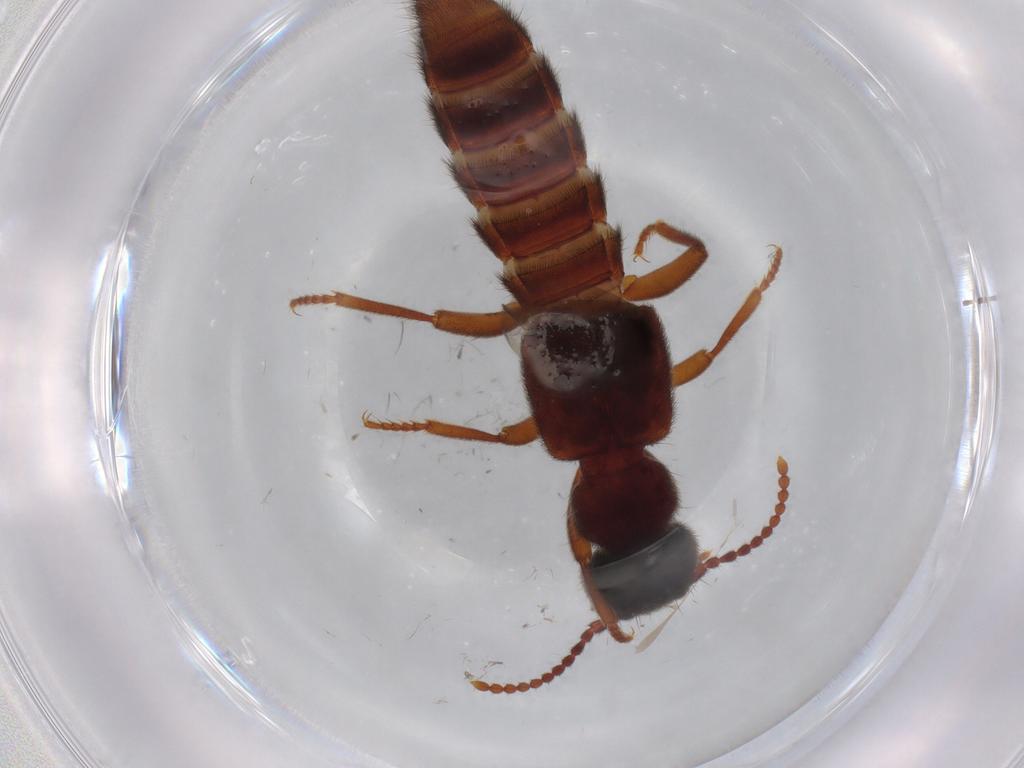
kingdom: Animalia
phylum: Arthropoda
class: Insecta
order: Coleoptera
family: Staphylinidae
